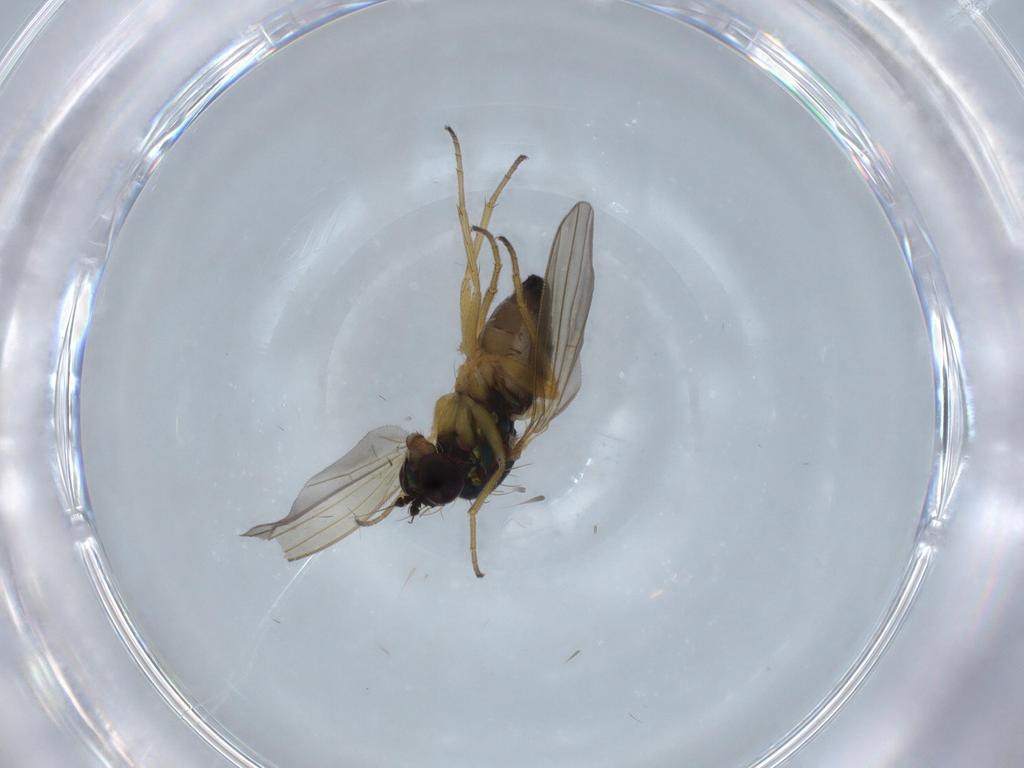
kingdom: Animalia
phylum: Arthropoda
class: Insecta
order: Diptera
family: Dolichopodidae
